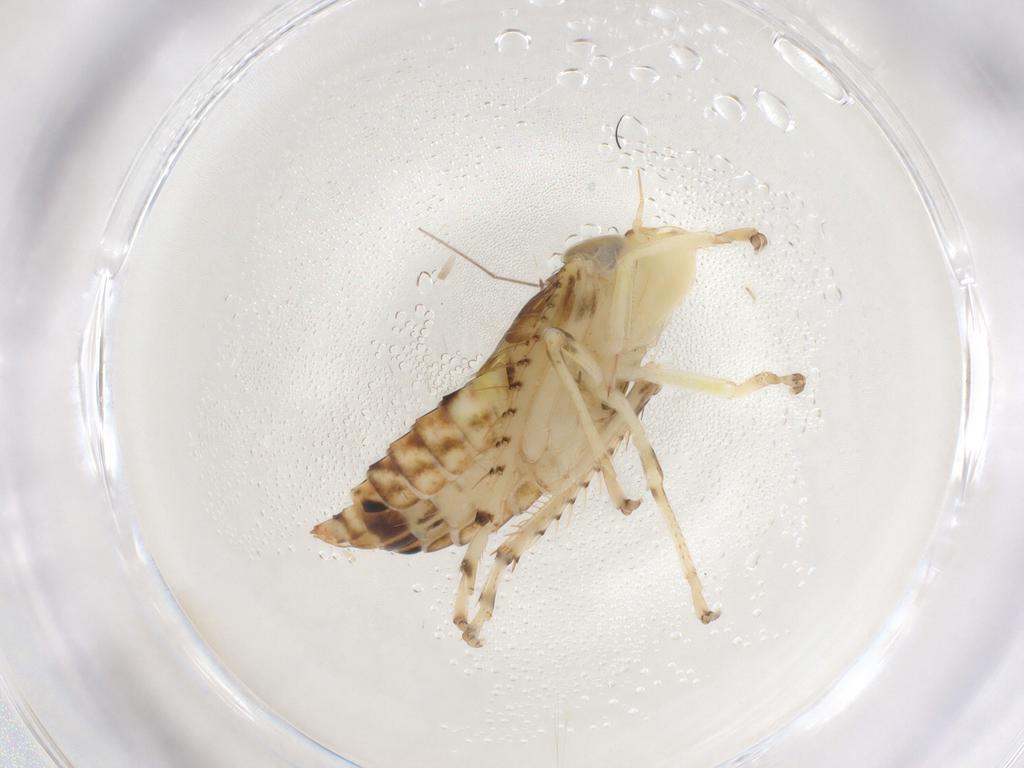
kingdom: Animalia
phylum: Arthropoda
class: Insecta
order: Hemiptera
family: Cicadellidae
